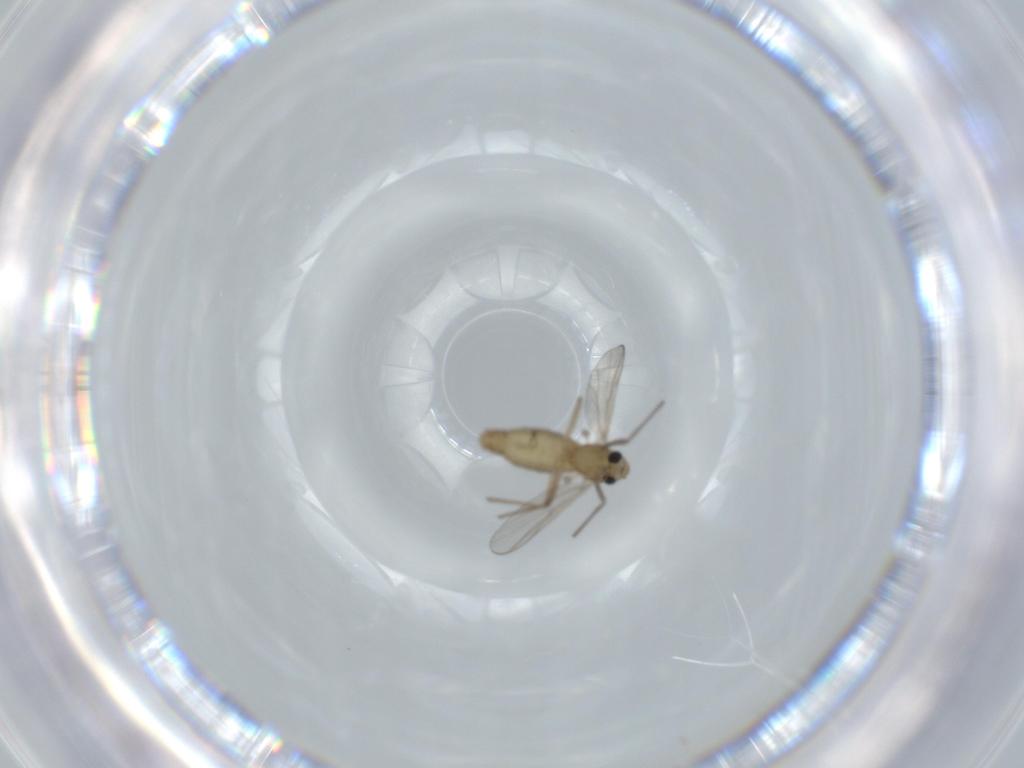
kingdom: Animalia
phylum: Arthropoda
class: Insecta
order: Diptera
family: Chironomidae
